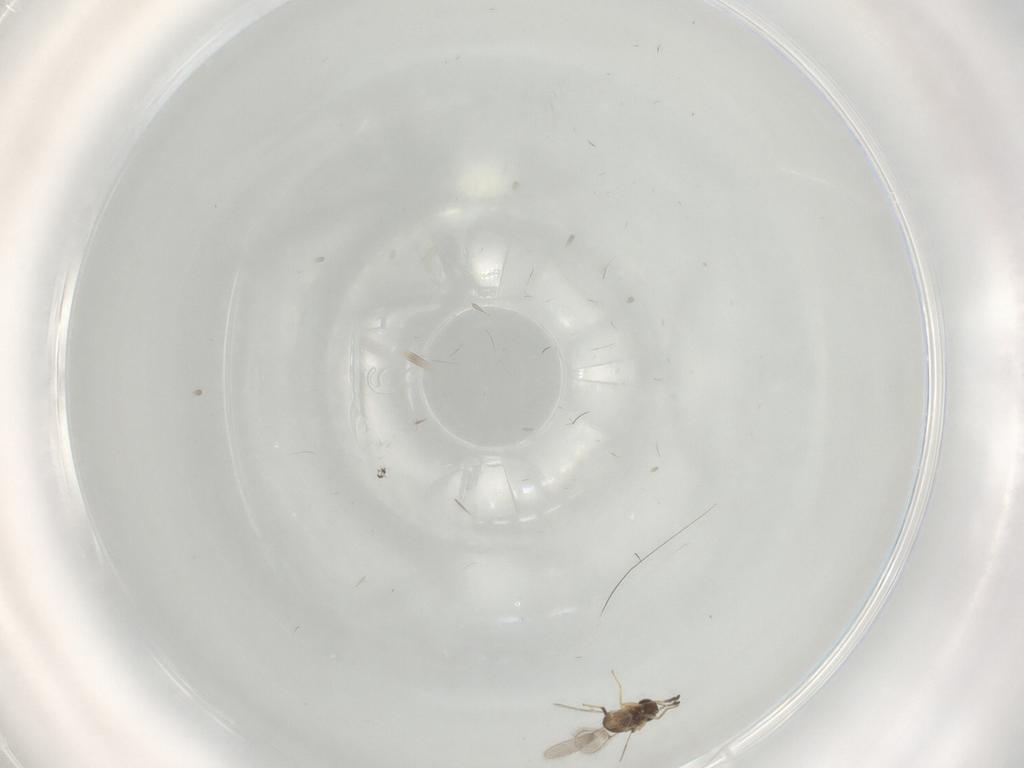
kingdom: Animalia
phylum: Arthropoda
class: Insecta
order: Hymenoptera
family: Mymaridae
